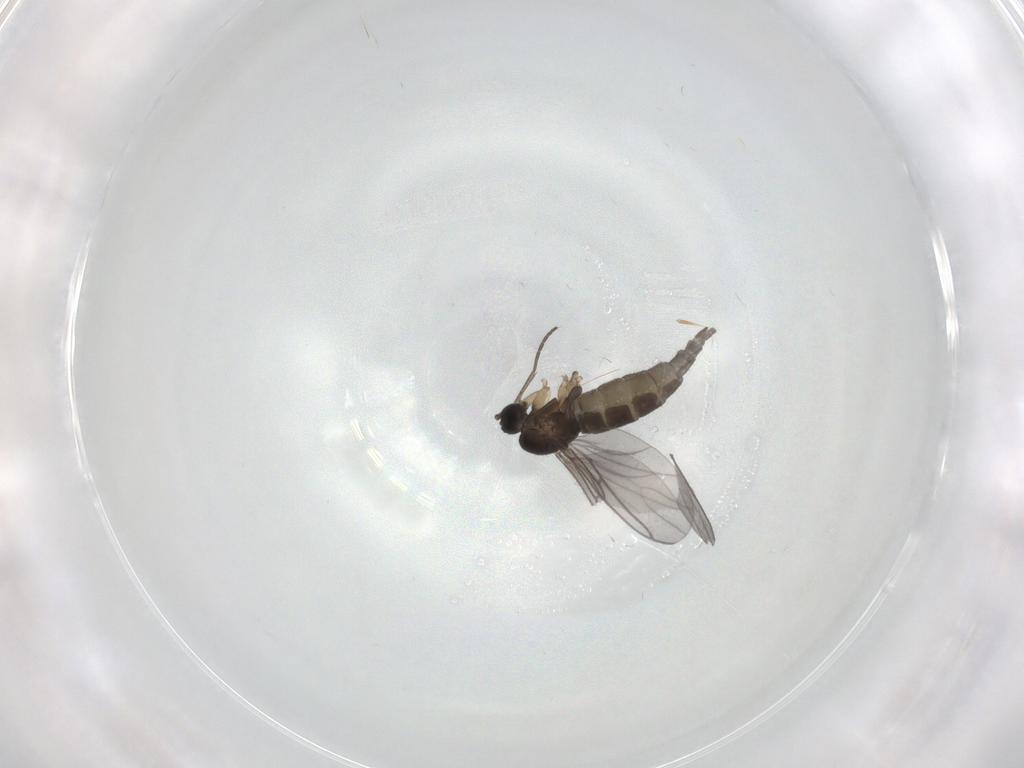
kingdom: Animalia
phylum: Arthropoda
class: Insecta
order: Diptera
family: Sciaridae
